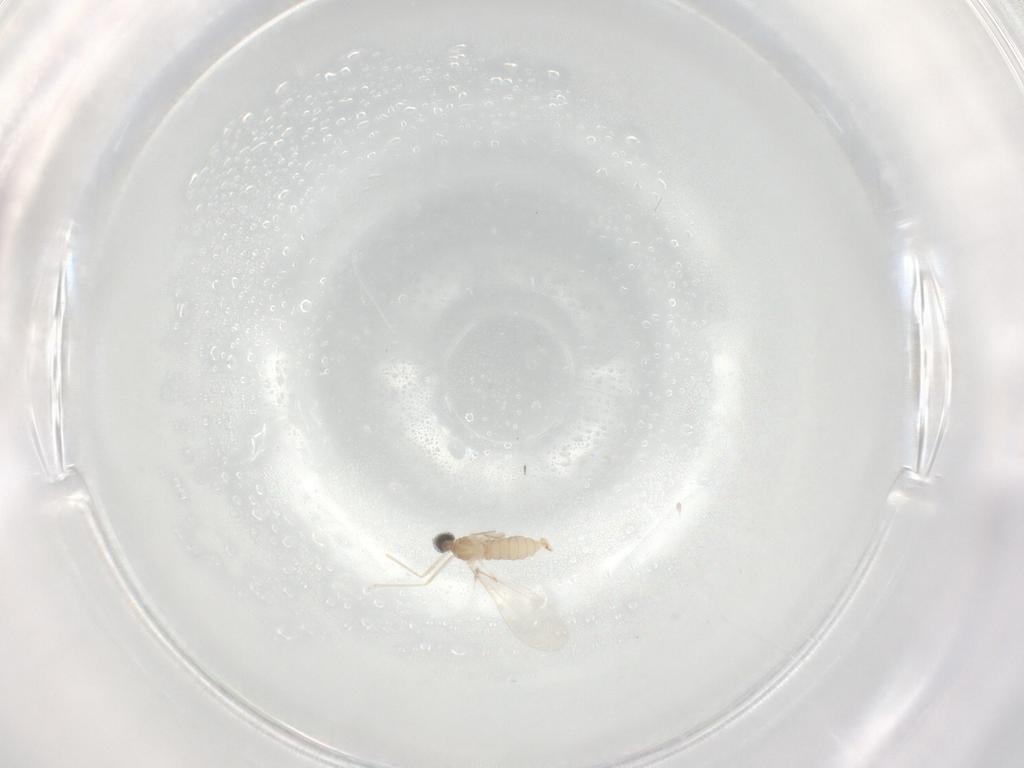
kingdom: Animalia
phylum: Arthropoda
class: Insecta
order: Diptera
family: Cecidomyiidae
